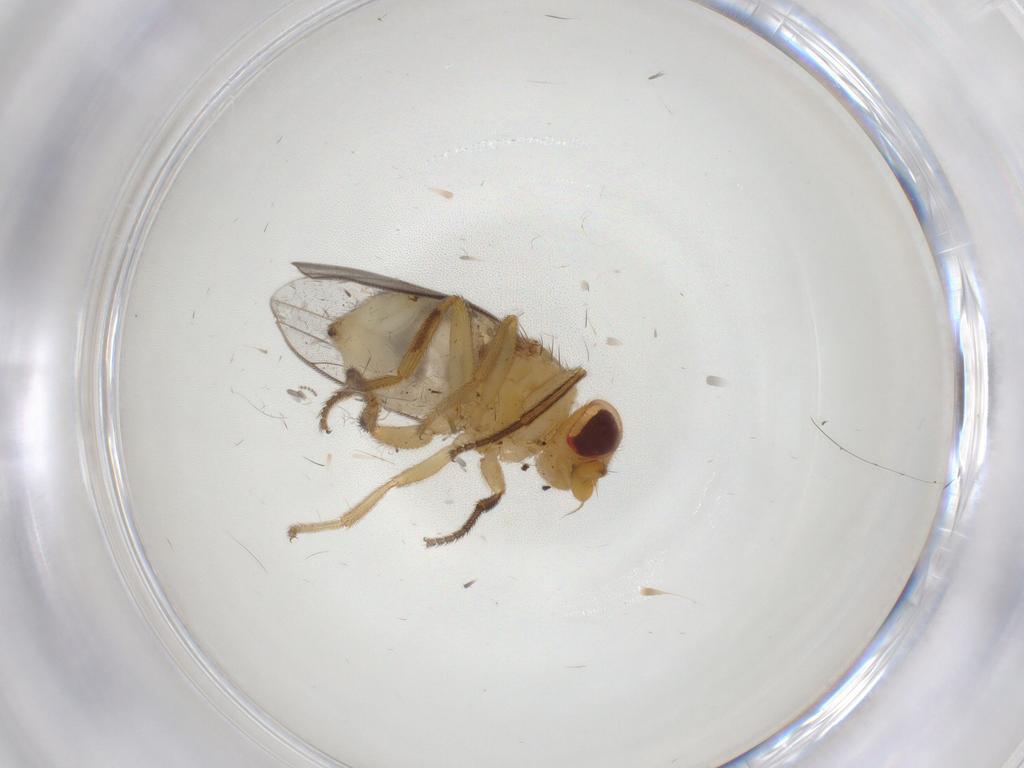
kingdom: Animalia
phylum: Arthropoda
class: Insecta
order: Diptera
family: Chloropidae
